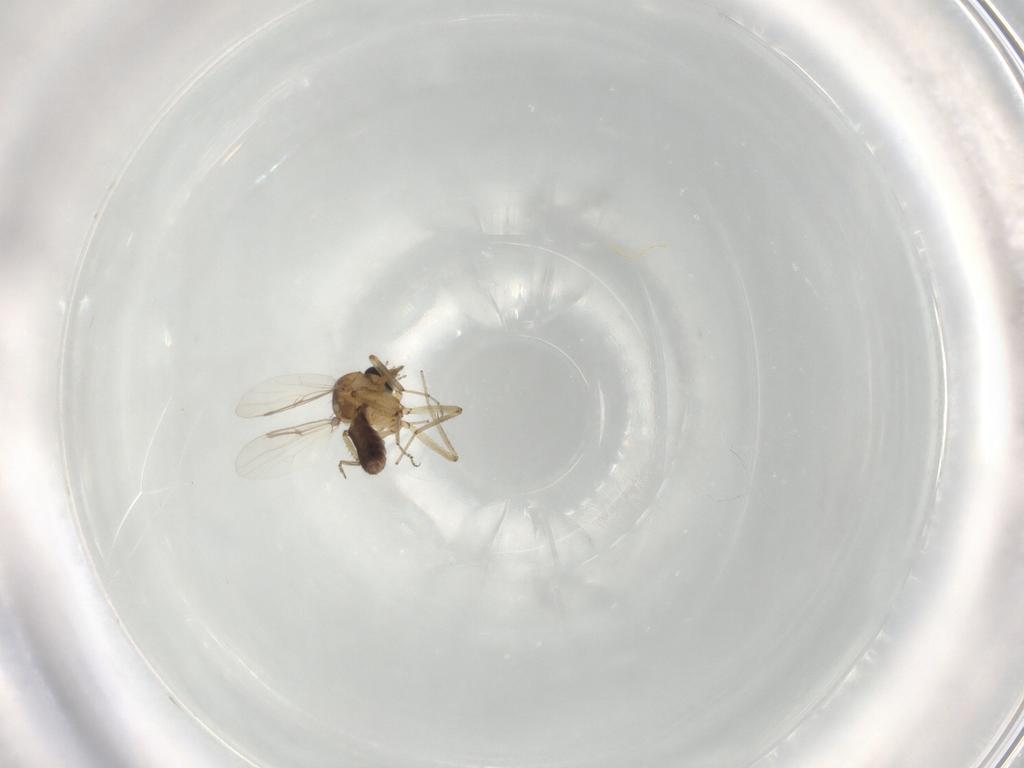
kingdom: Animalia
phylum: Arthropoda
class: Insecta
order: Diptera
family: Ceratopogonidae
